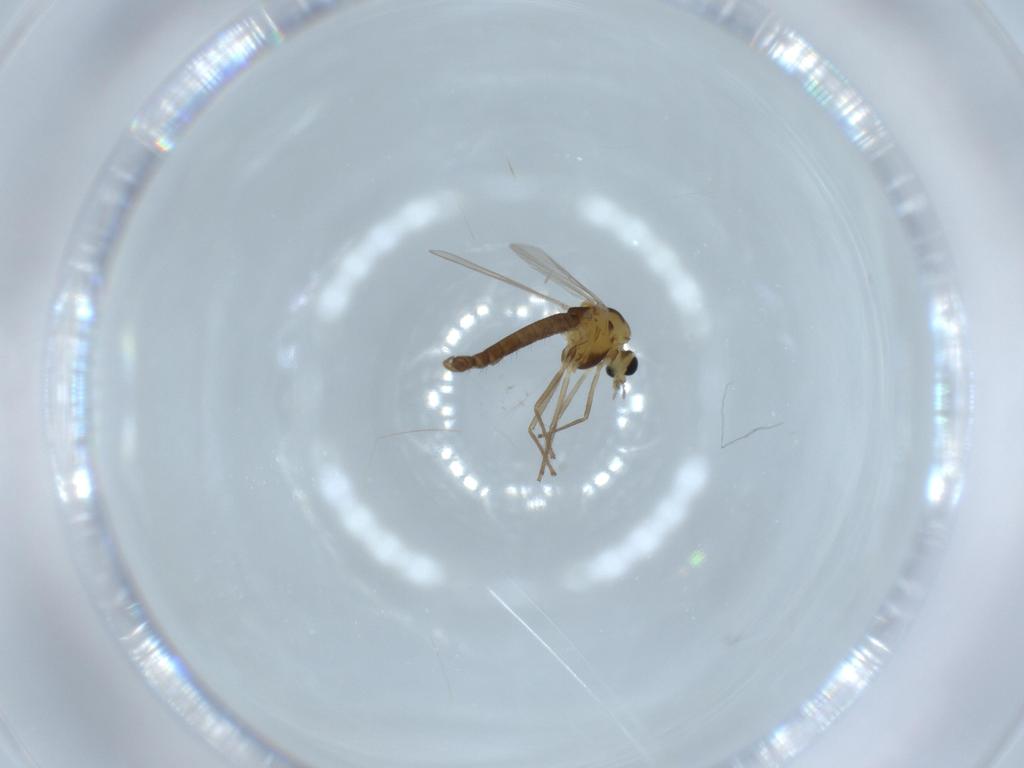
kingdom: Animalia
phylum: Arthropoda
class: Insecta
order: Diptera
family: Chironomidae
